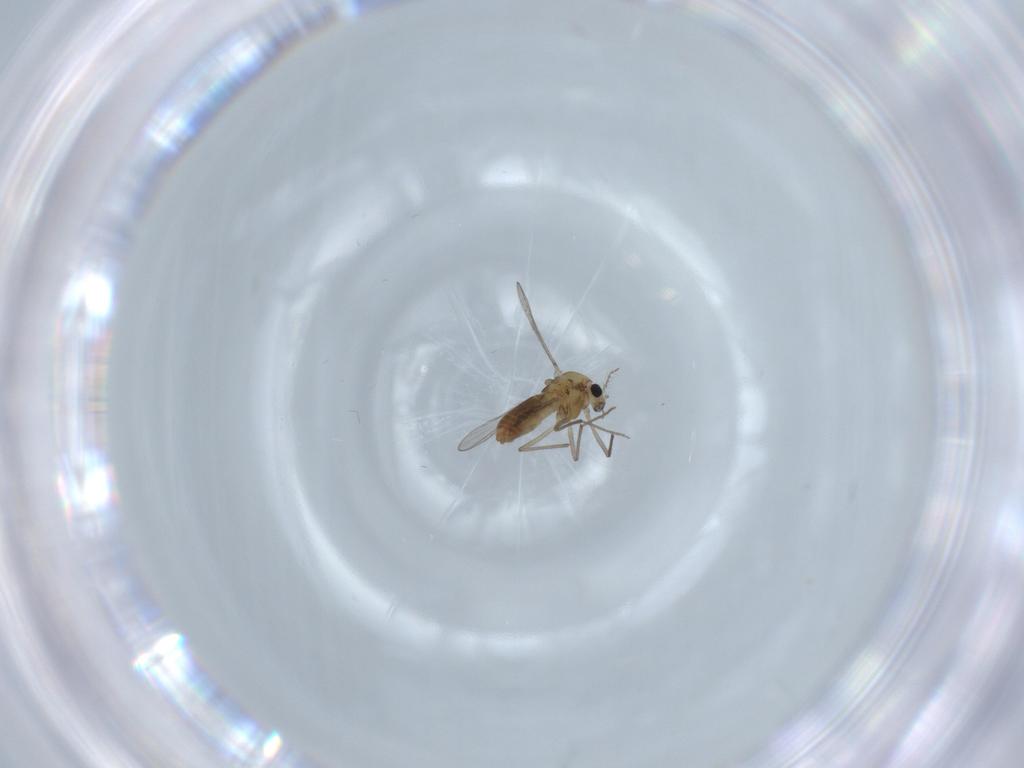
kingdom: Animalia
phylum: Arthropoda
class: Insecta
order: Diptera
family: Chironomidae
